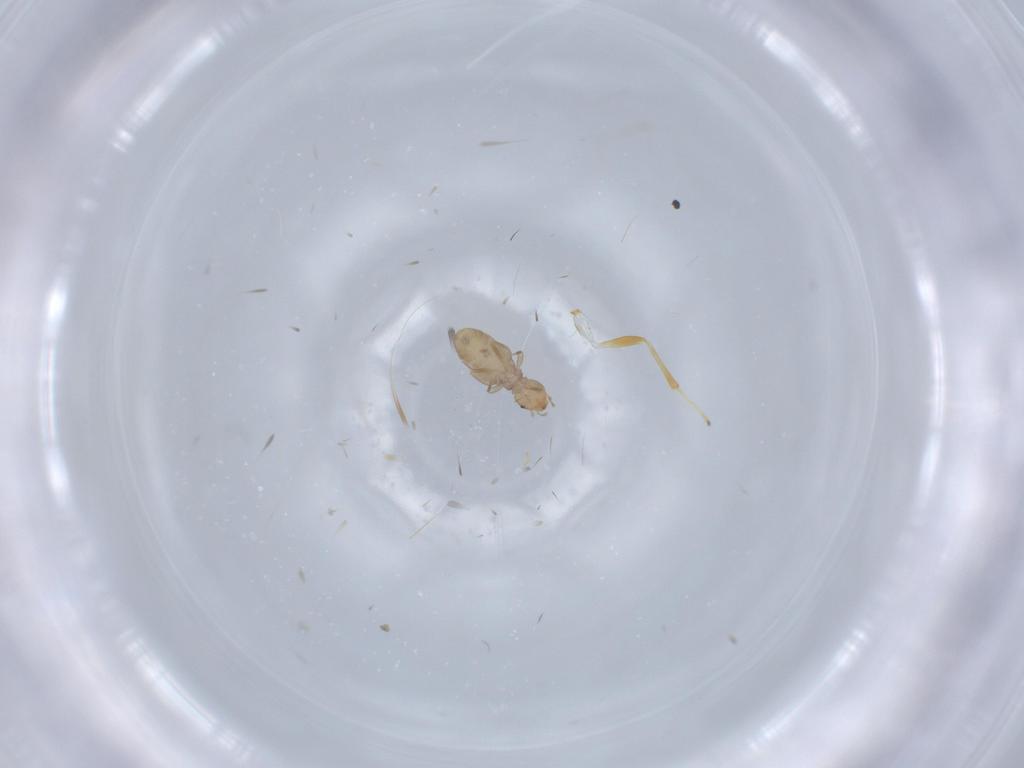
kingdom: Animalia
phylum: Arthropoda
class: Insecta
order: Psocodea
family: Liposcelididae
